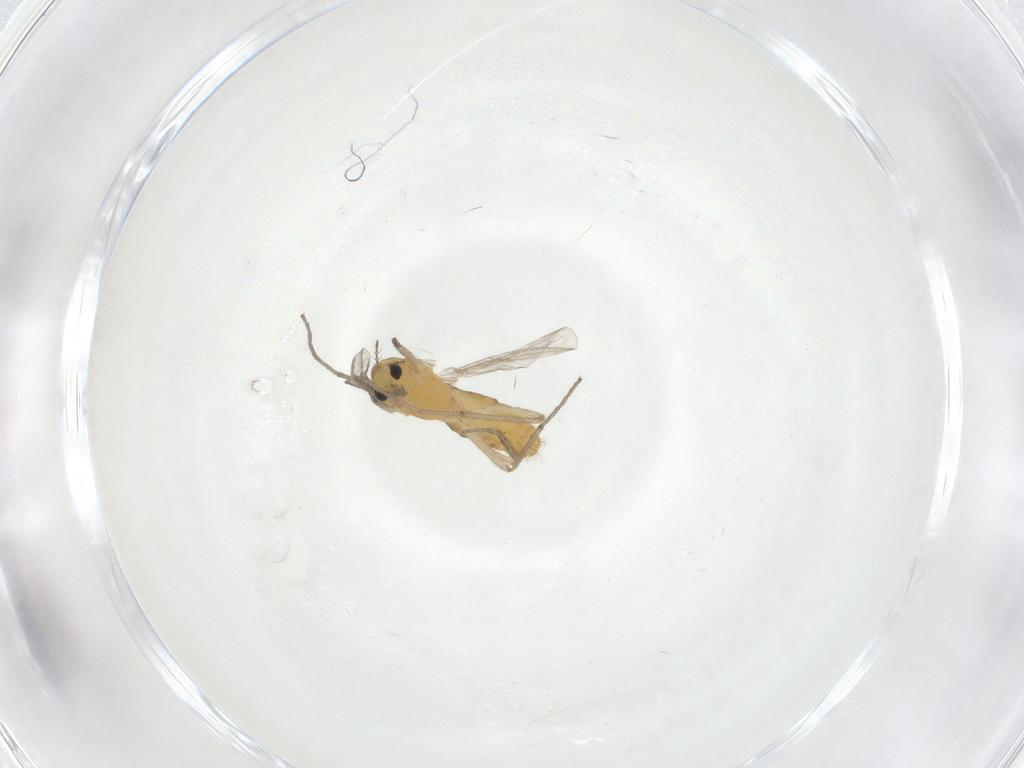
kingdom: Animalia
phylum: Arthropoda
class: Insecta
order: Diptera
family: Chironomidae
